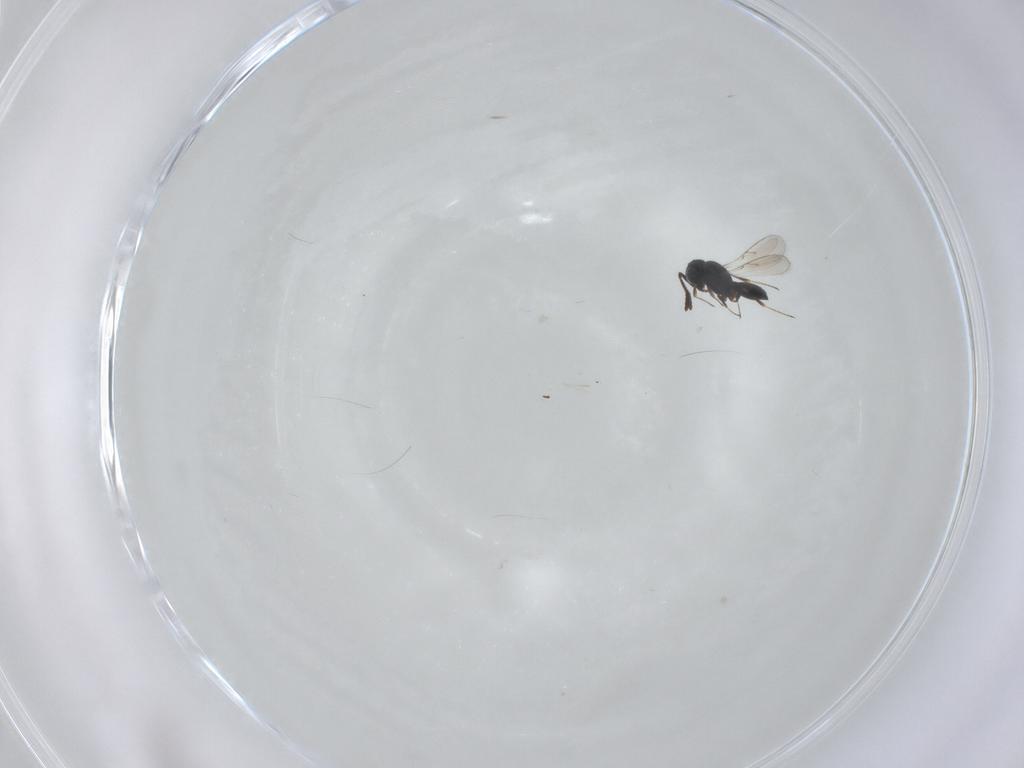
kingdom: Animalia
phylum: Arthropoda
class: Insecta
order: Hymenoptera
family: Scelionidae
